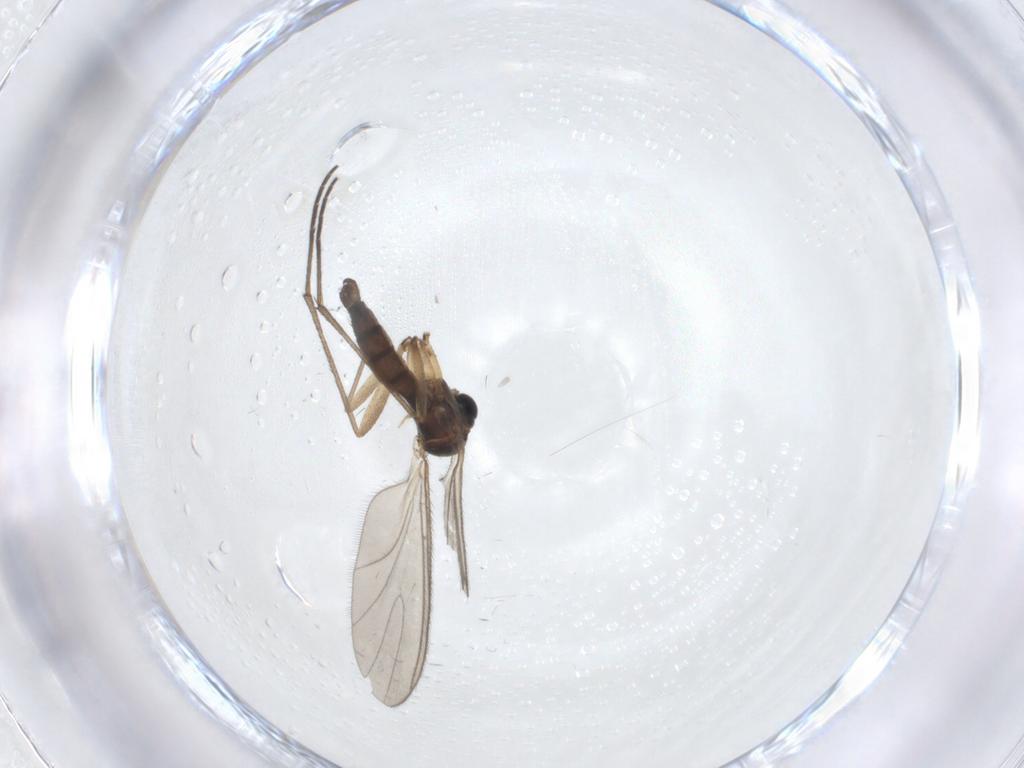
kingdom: Animalia
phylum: Arthropoda
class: Insecta
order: Diptera
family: Sciaridae
